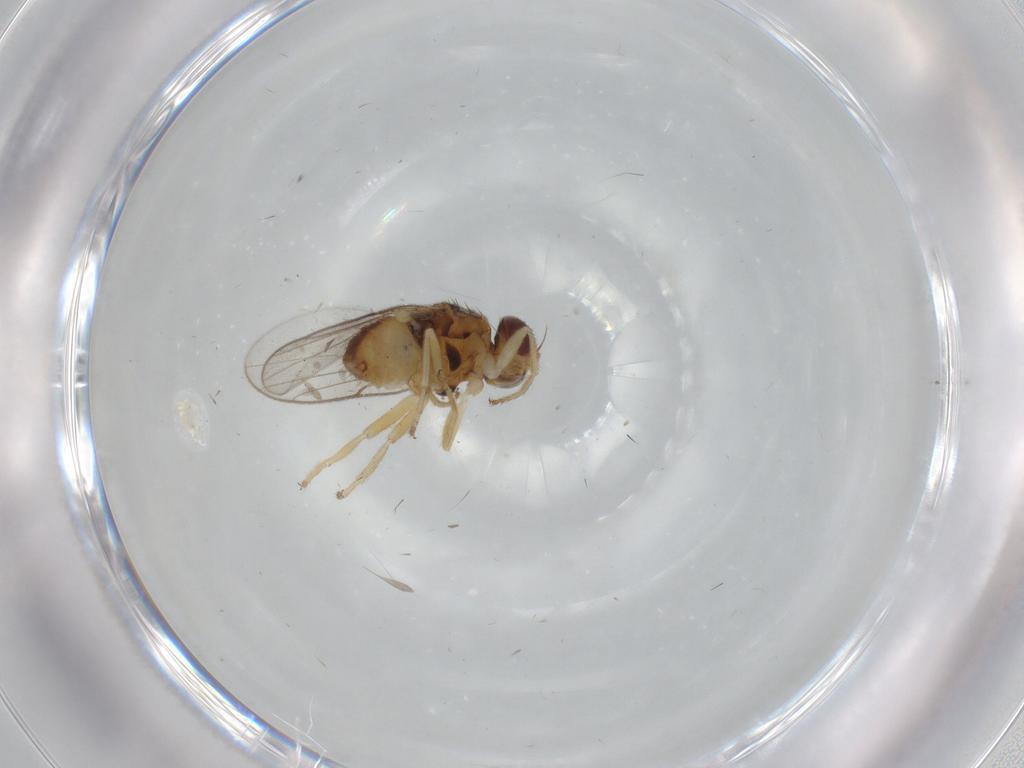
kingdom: Animalia
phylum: Arthropoda
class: Insecta
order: Diptera
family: Chloropidae
